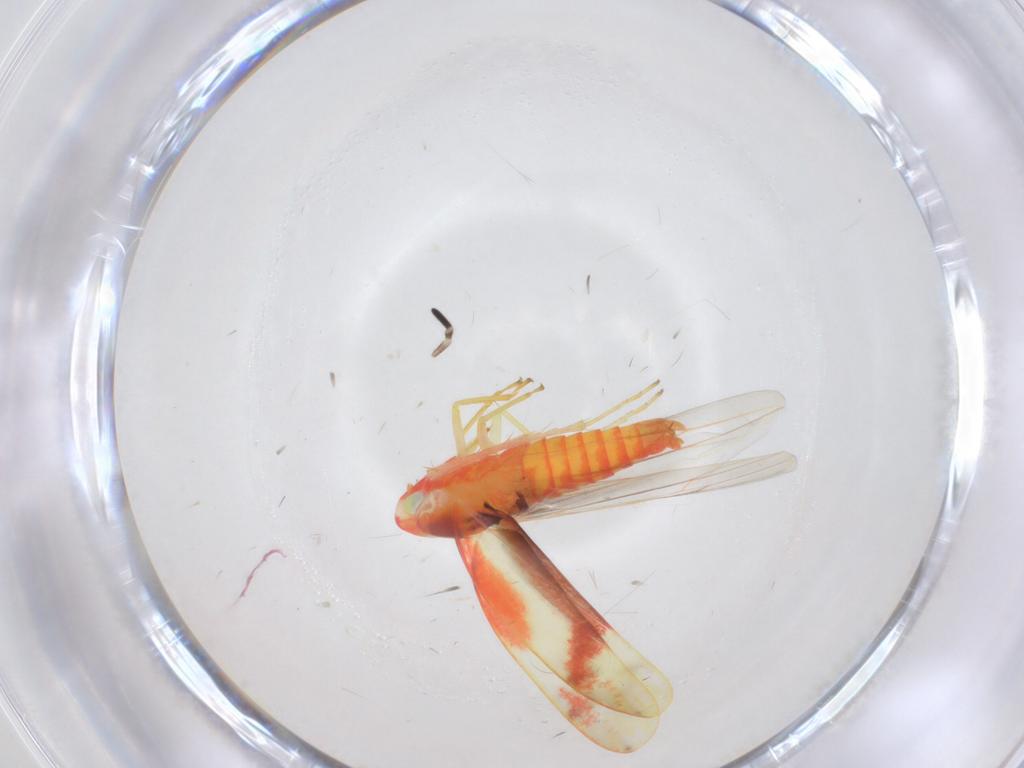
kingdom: Animalia
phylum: Arthropoda
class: Insecta
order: Hemiptera
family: Cicadellidae
